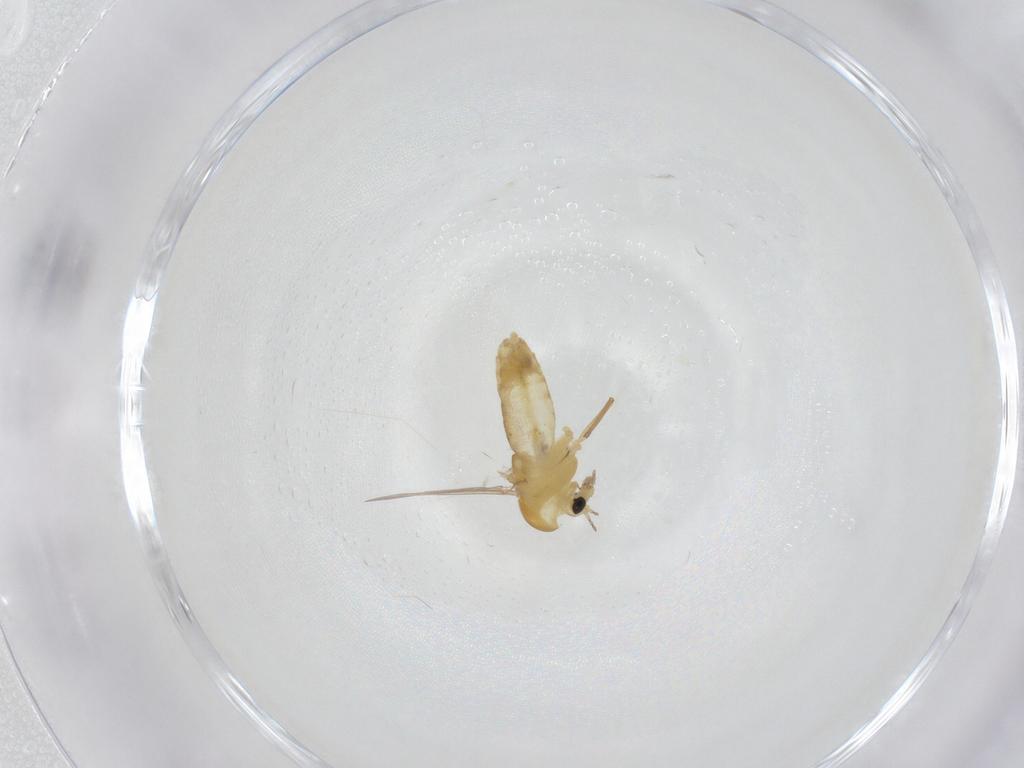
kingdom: Animalia
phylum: Arthropoda
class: Insecta
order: Diptera
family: Chironomidae
